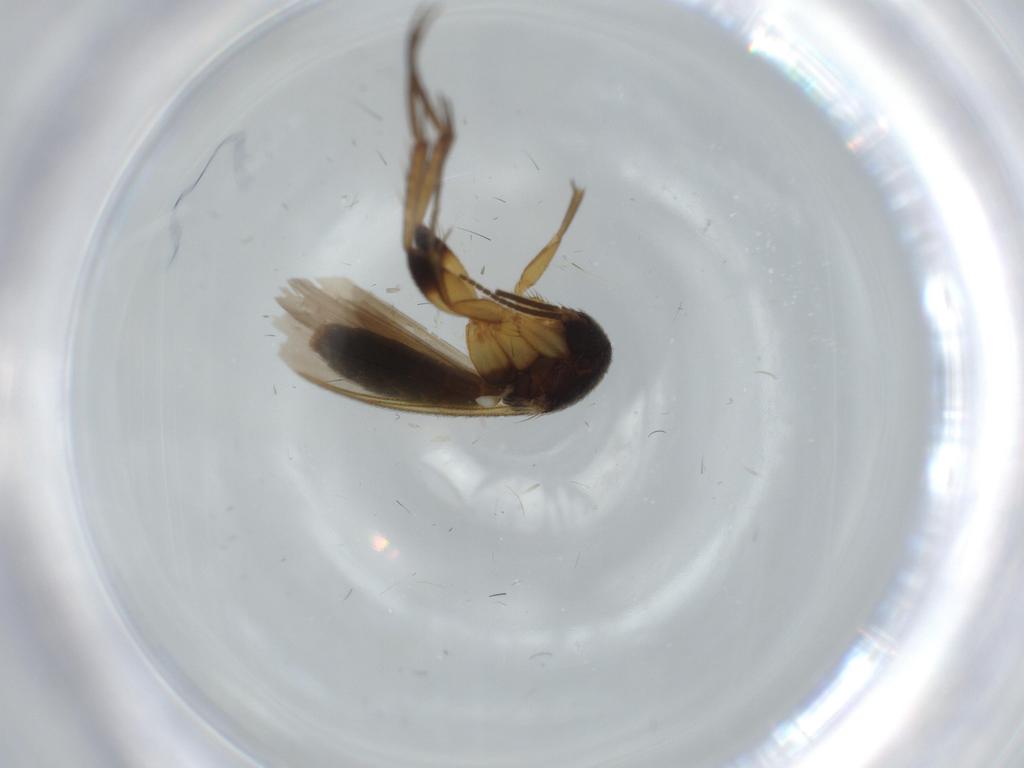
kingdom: Animalia
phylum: Arthropoda
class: Insecta
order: Diptera
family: Mycetophilidae
